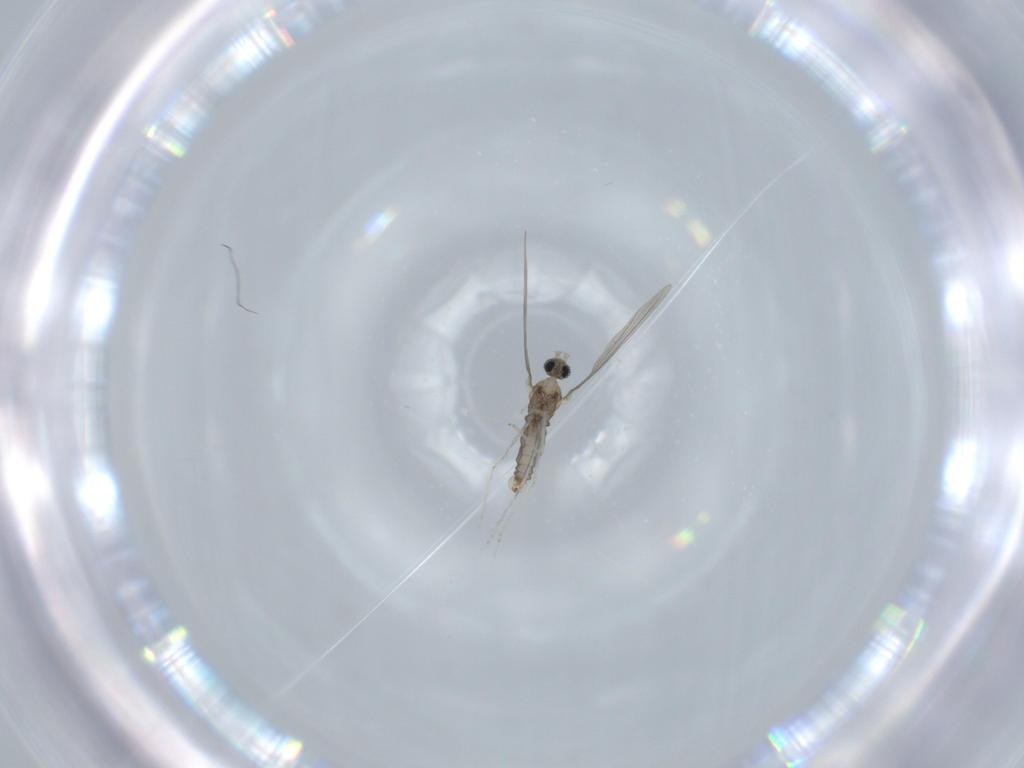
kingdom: Animalia
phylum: Arthropoda
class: Insecta
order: Diptera
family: Cecidomyiidae
